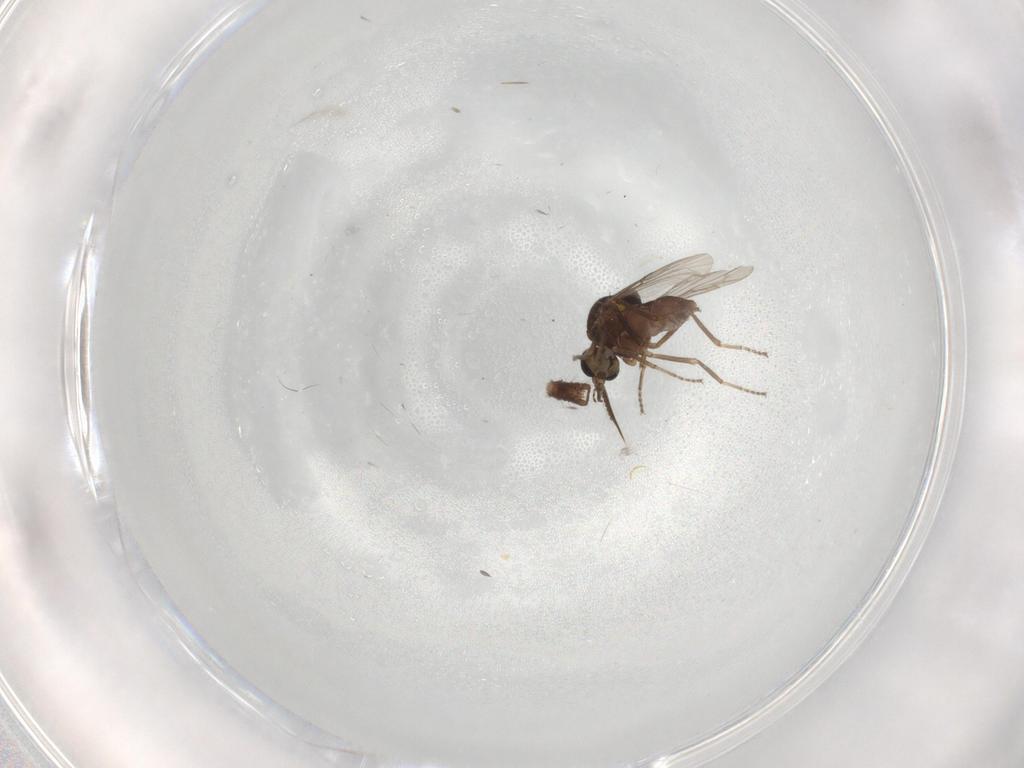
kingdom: Animalia
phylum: Arthropoda
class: Insecta
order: Diptera
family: Ceratopogonidae
